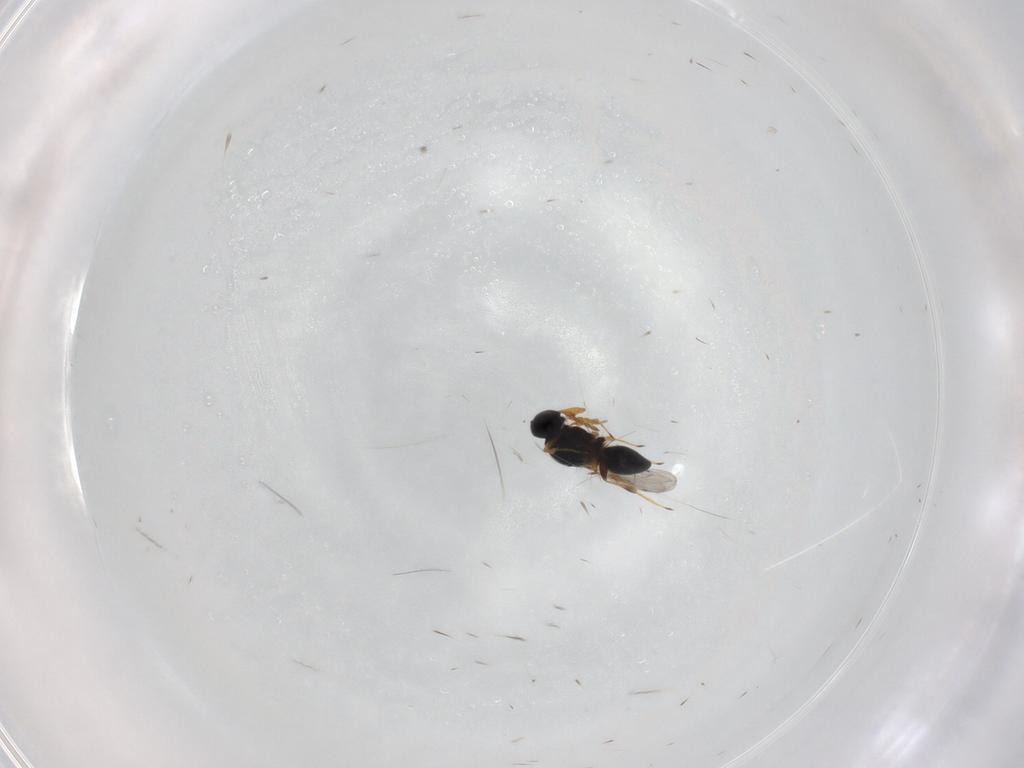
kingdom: Animalia
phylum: Arthropoda
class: Insecta
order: Hymenoptera
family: Platygastridae
